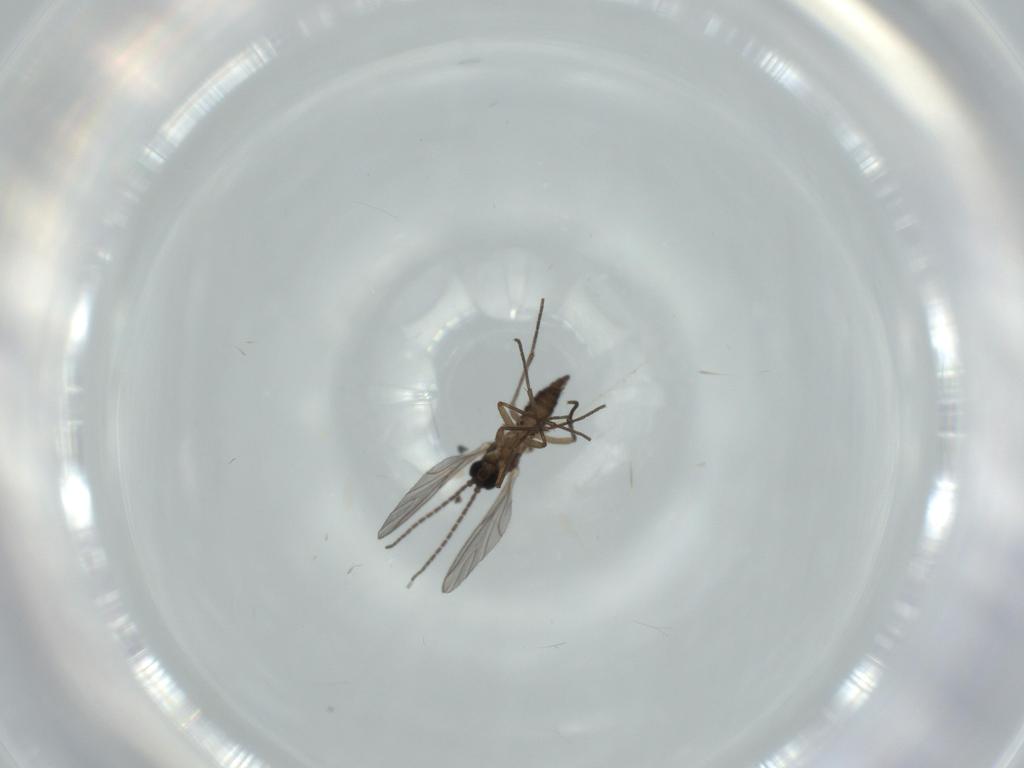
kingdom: Animalia
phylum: Arthropoda
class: Insecta
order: Diptera
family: Sciaridae
